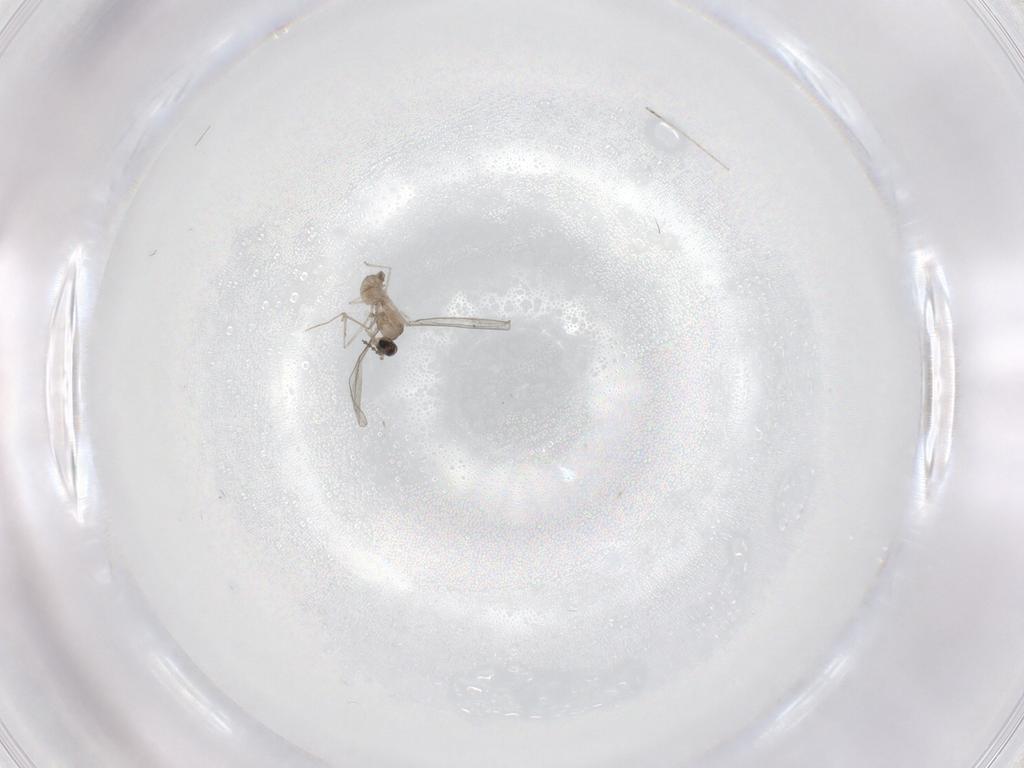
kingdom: Animalia
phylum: Arthropoda
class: Insecta
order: Diptera
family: Cecidomyiidae
